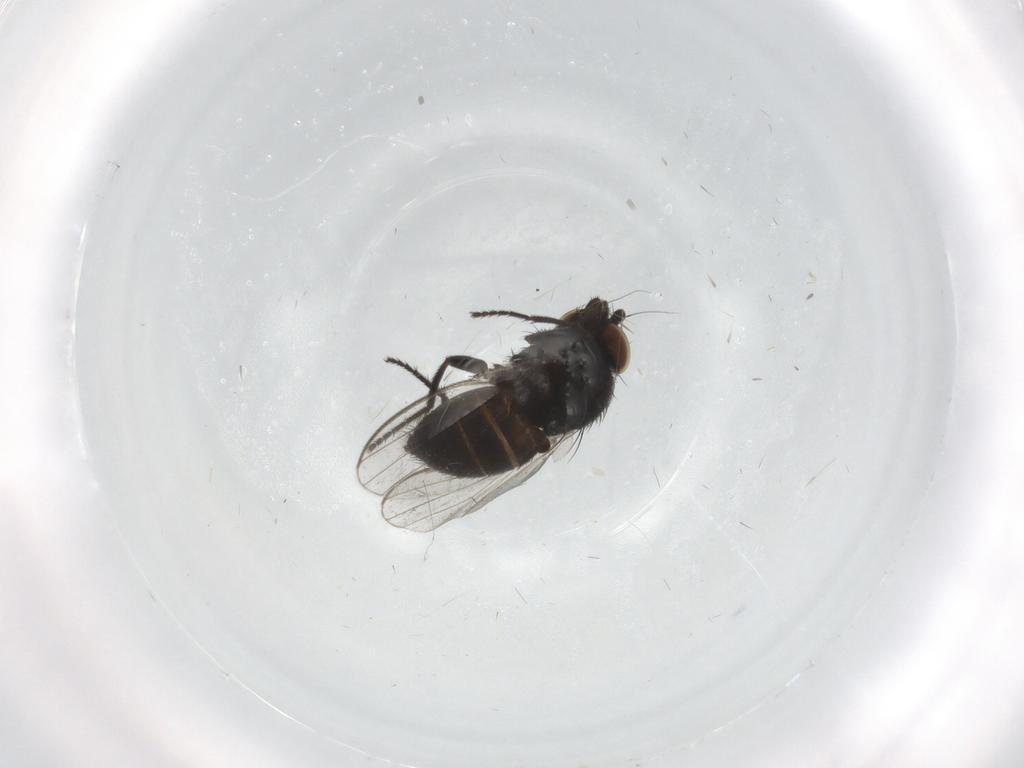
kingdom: Animalia
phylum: Arthropoda
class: Insecta
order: Diptera
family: Milichiidae
